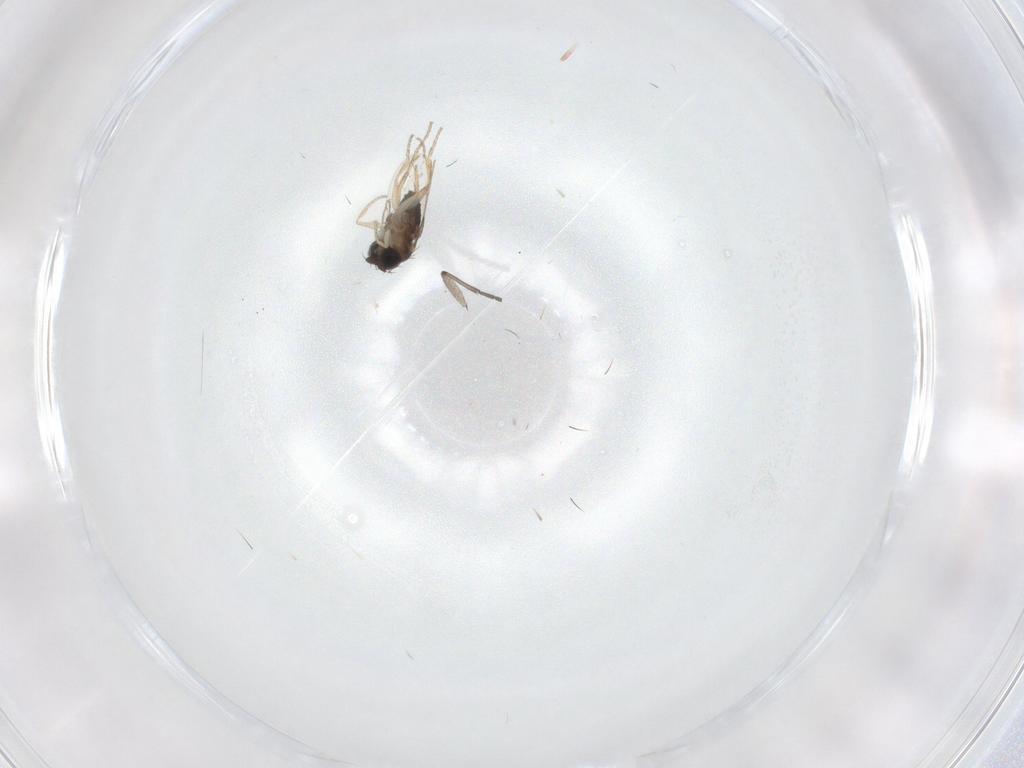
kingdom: Animalia
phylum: Arthropoda
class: Insecta
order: Diptera
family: Phoridae
